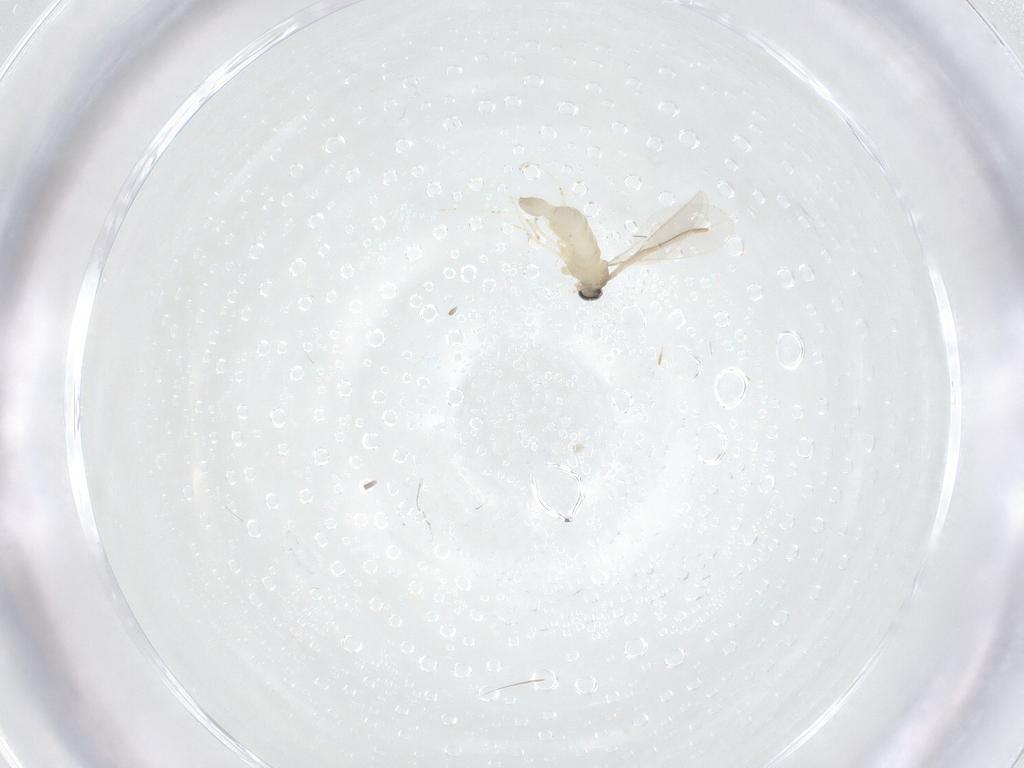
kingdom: Animalia
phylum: Arthropoda
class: Insecta
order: Diptera
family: Cecidomyiidae
